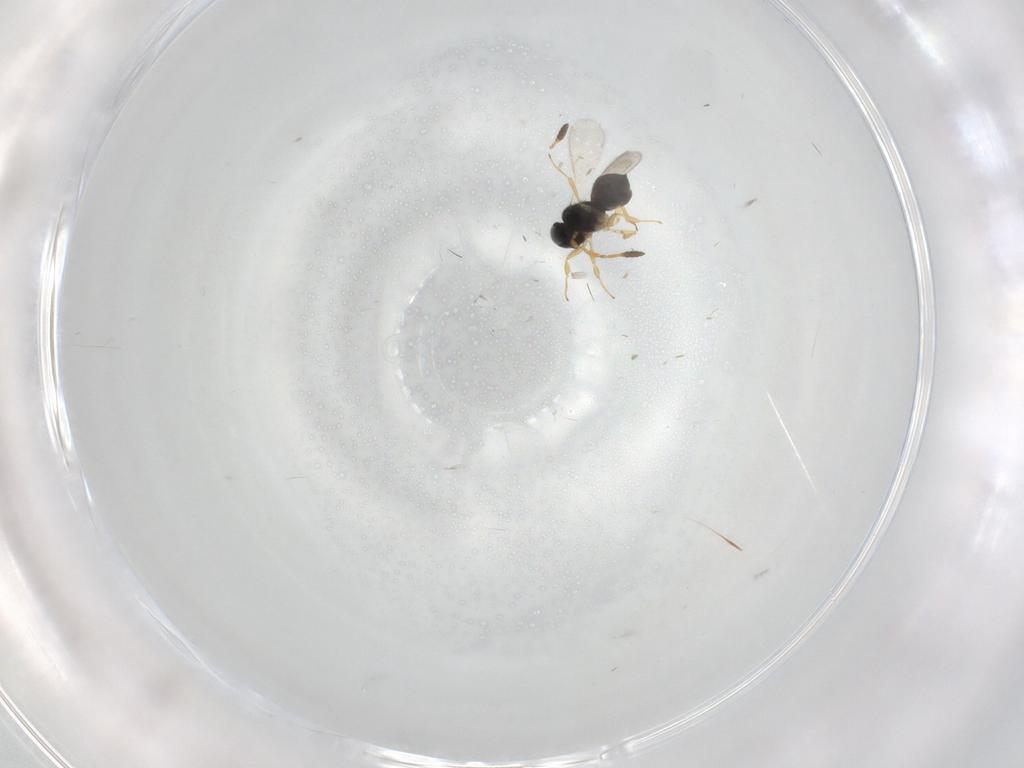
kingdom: Animalia
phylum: Arthropoda
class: Insecta
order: Hymenoptera
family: Scelionidae
